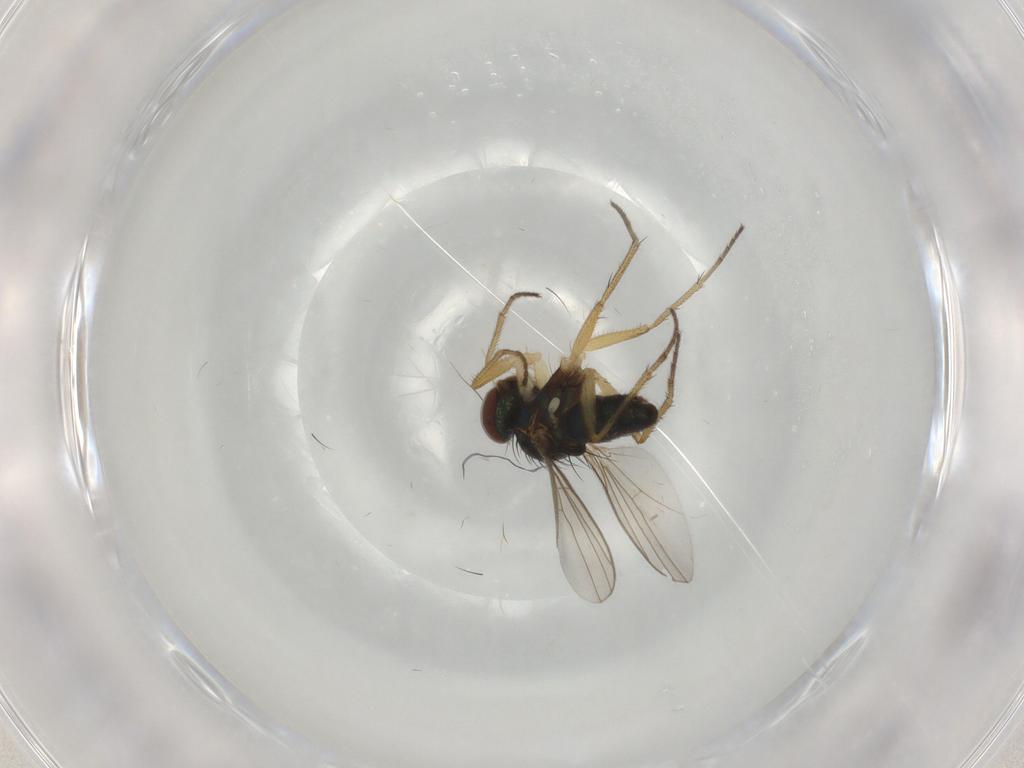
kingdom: Animalia
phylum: Arthropoda
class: Insecta
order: Diptera
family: Dolichopodidae
